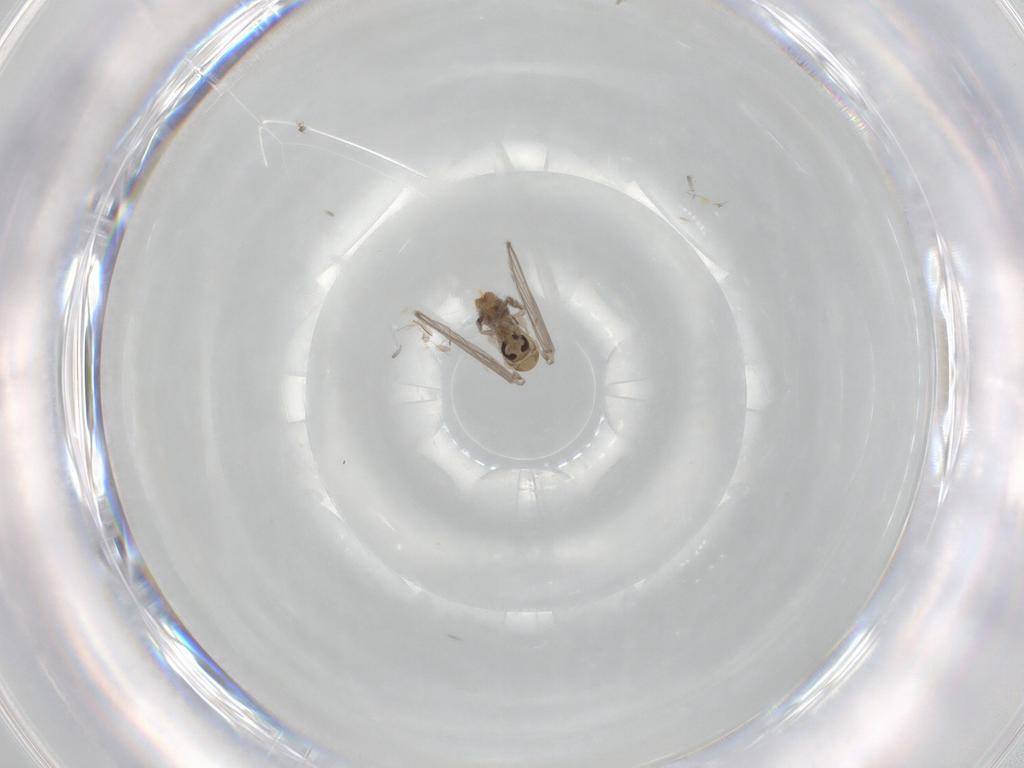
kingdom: Animalia
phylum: Arthropoda
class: Insecta
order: Diptera
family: Psychodidae
